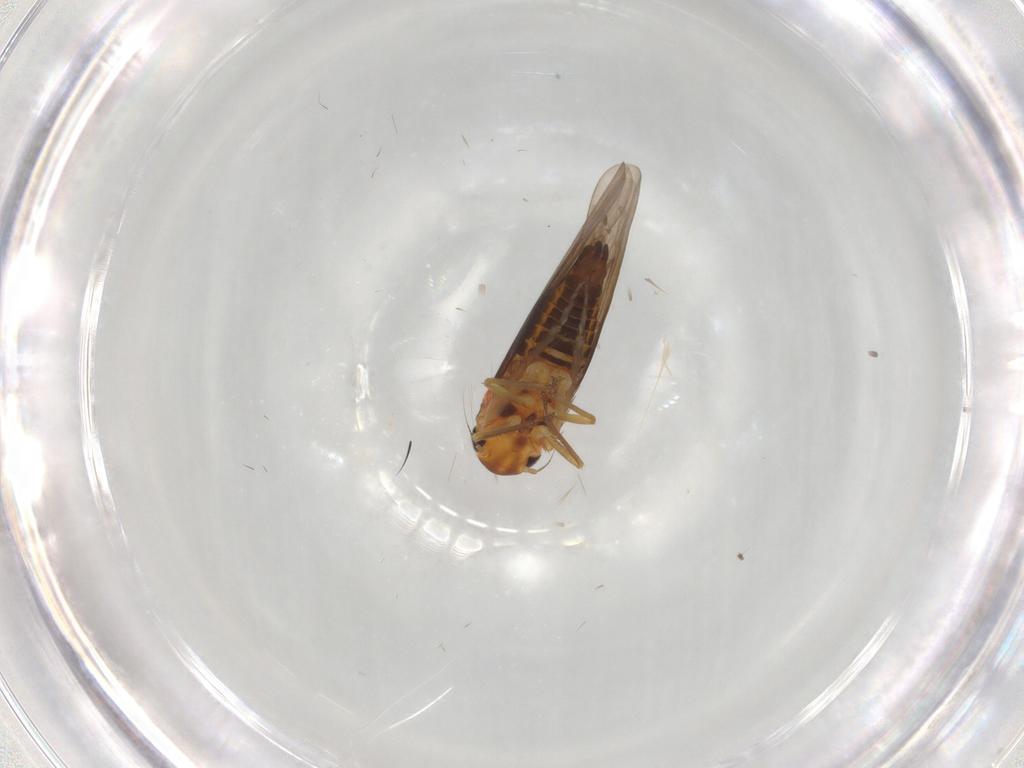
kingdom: Animalia
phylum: Arthropoda
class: Insecta
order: Hemiptera
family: Cicadellidae
